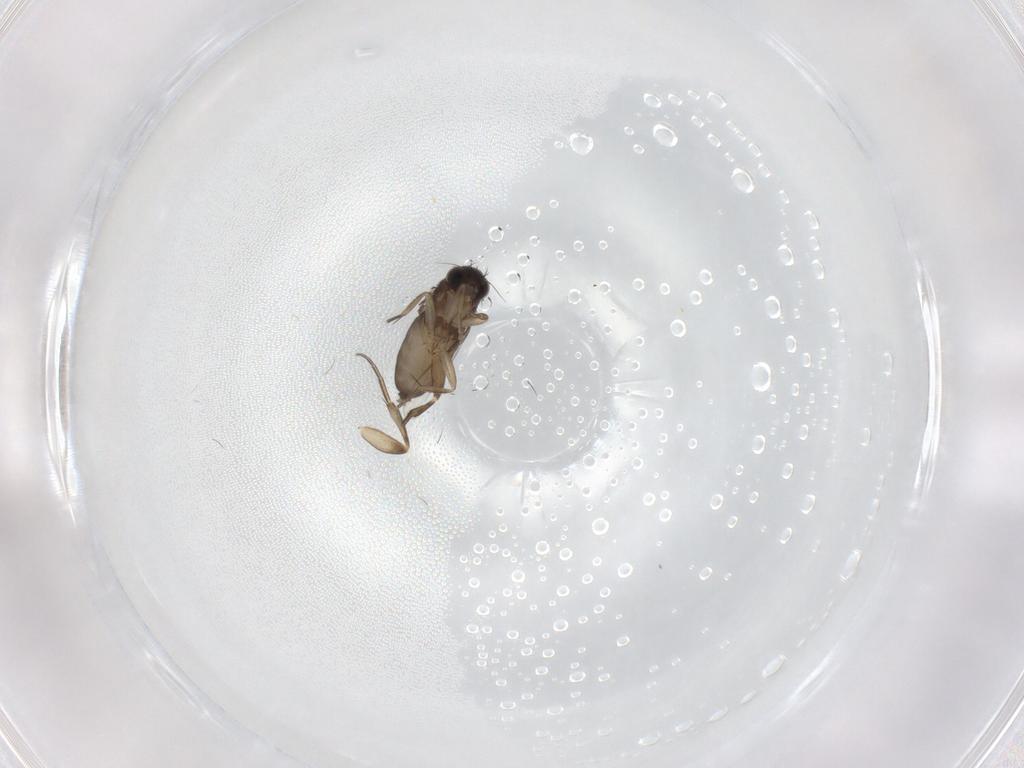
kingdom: Animalia
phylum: Arthropoda
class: Insecta
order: Diptera
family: Phoridae
